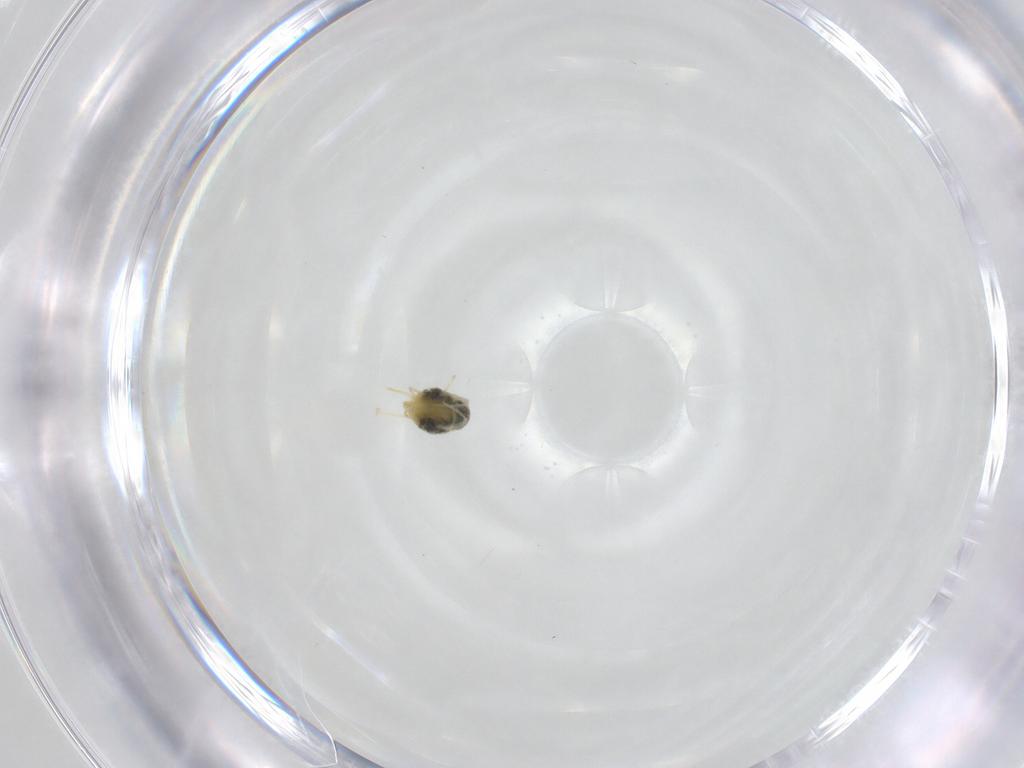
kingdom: Animalia
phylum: Arthropoda
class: Arachnida
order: Trombidiformes
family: Tetranychidae
